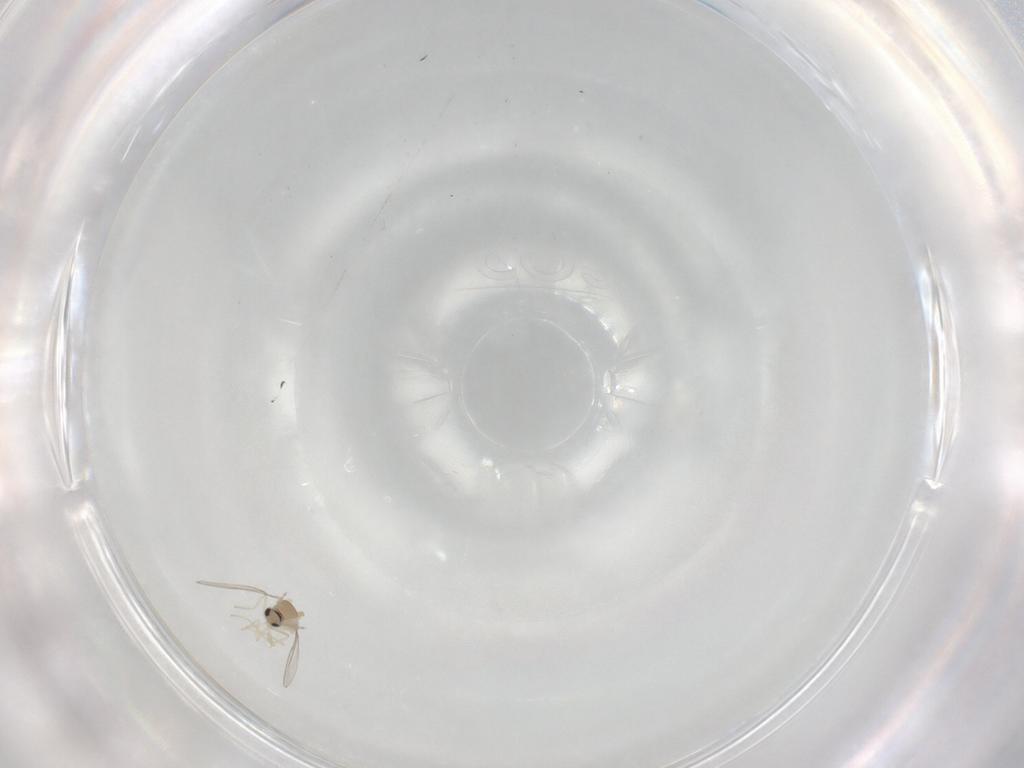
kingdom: Animalia
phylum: Arthropoda
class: Insecta
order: Diptera
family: Cecidomyiidae
